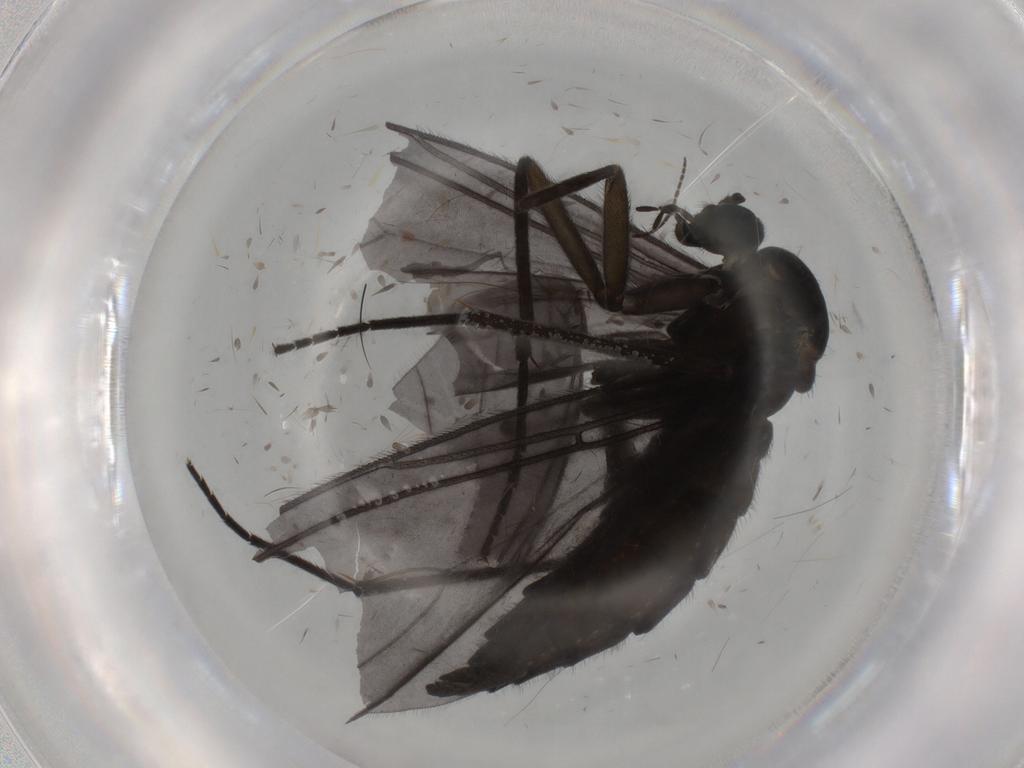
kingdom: Animalia
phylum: Arthropoda
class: Insecta
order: Diptera
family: Sciaridae
